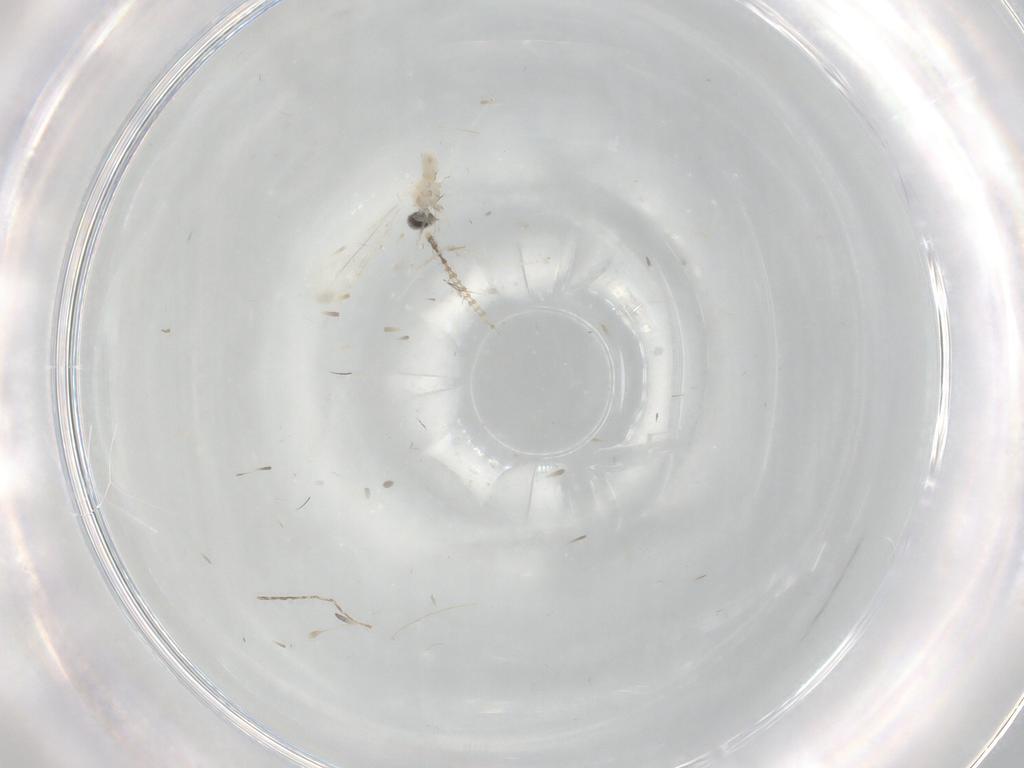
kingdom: Animalia
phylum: Arthropoda
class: Insecta
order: Diptera
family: Cecidomyiidae
